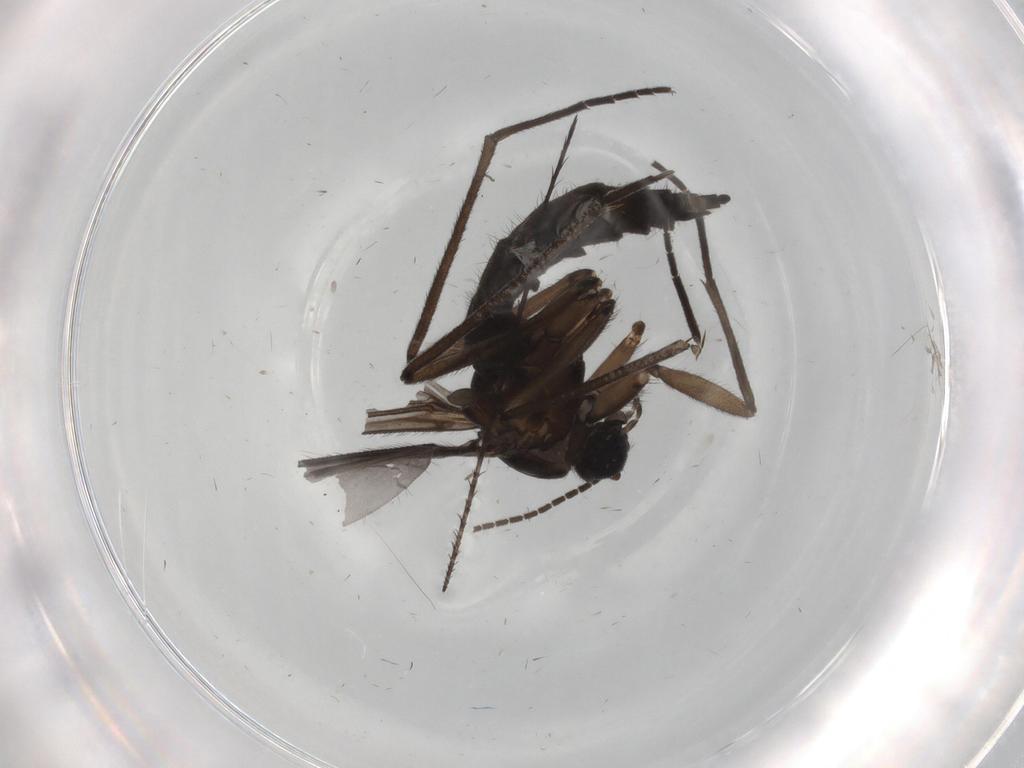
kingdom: Animalia
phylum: Arthropoda
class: Insecta
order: Diptera
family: Sciaridae
